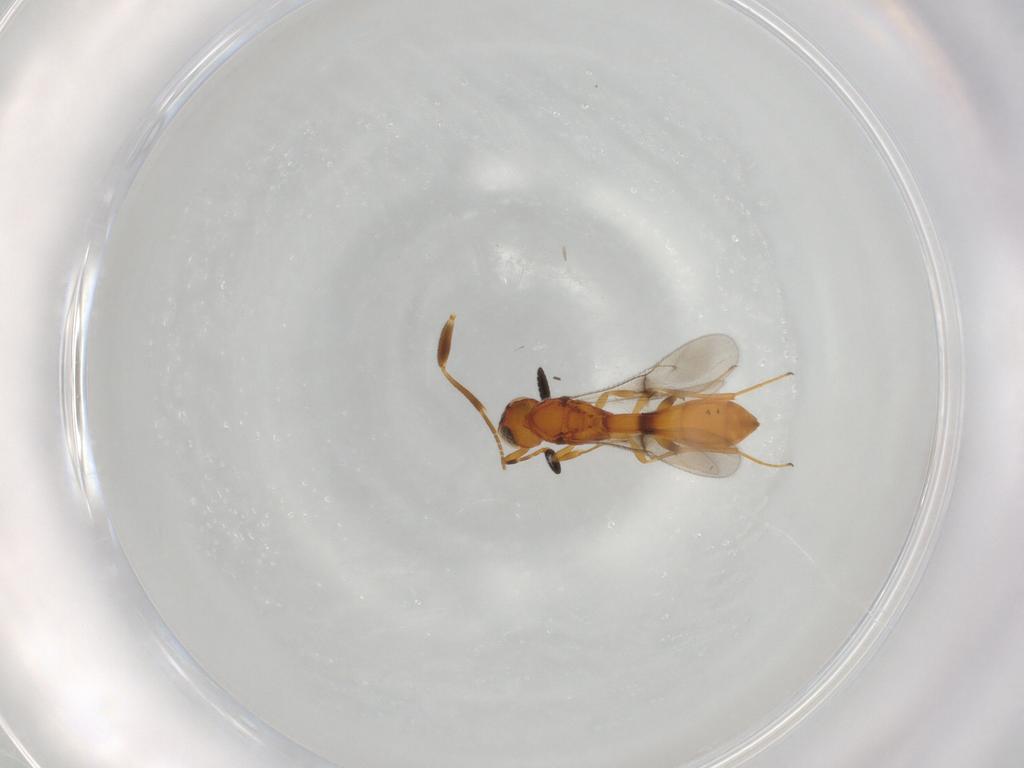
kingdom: Animalia
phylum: Arthropoda
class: Insecta
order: Hymenoptera
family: Scelionidae
